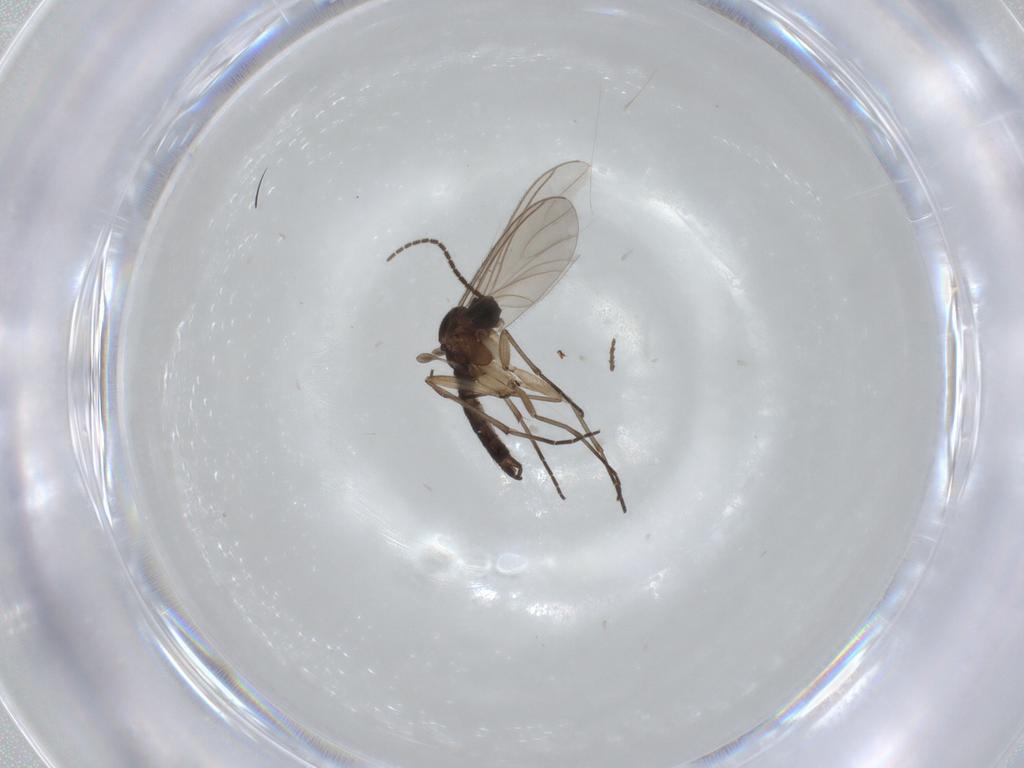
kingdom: Animalia
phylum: Arthropoda
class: Insecta
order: Diptera
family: Sciaridae
